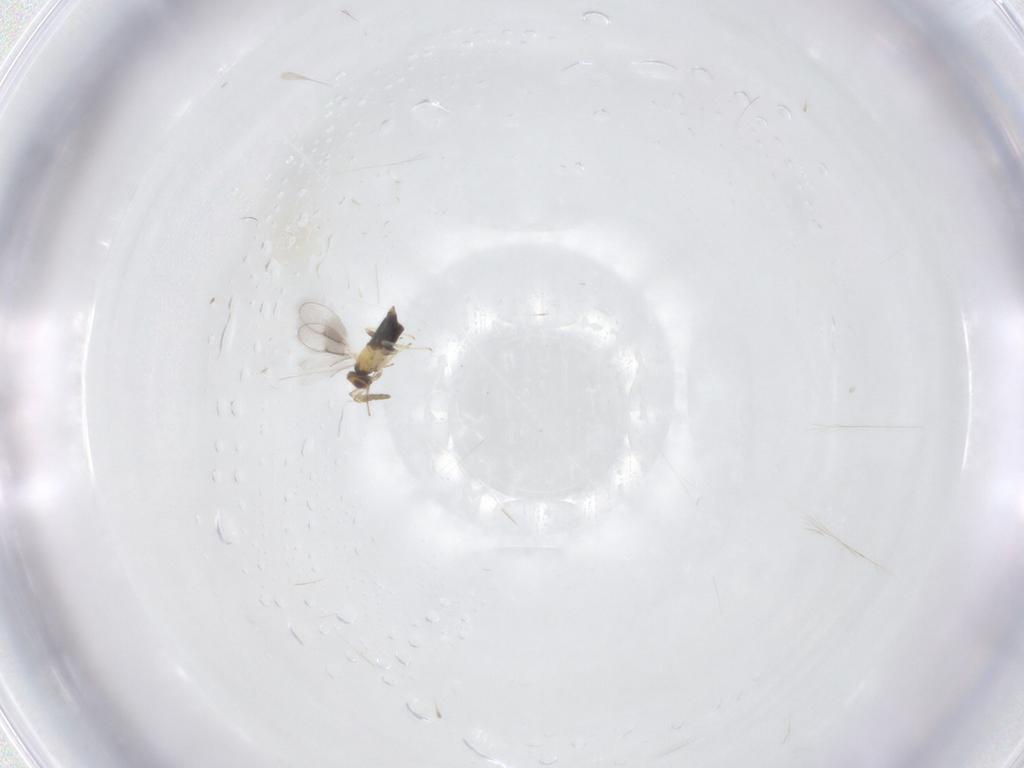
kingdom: Animalia
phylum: Arthropoda
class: Insecta
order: Hymenoptera
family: Aphelinidae
